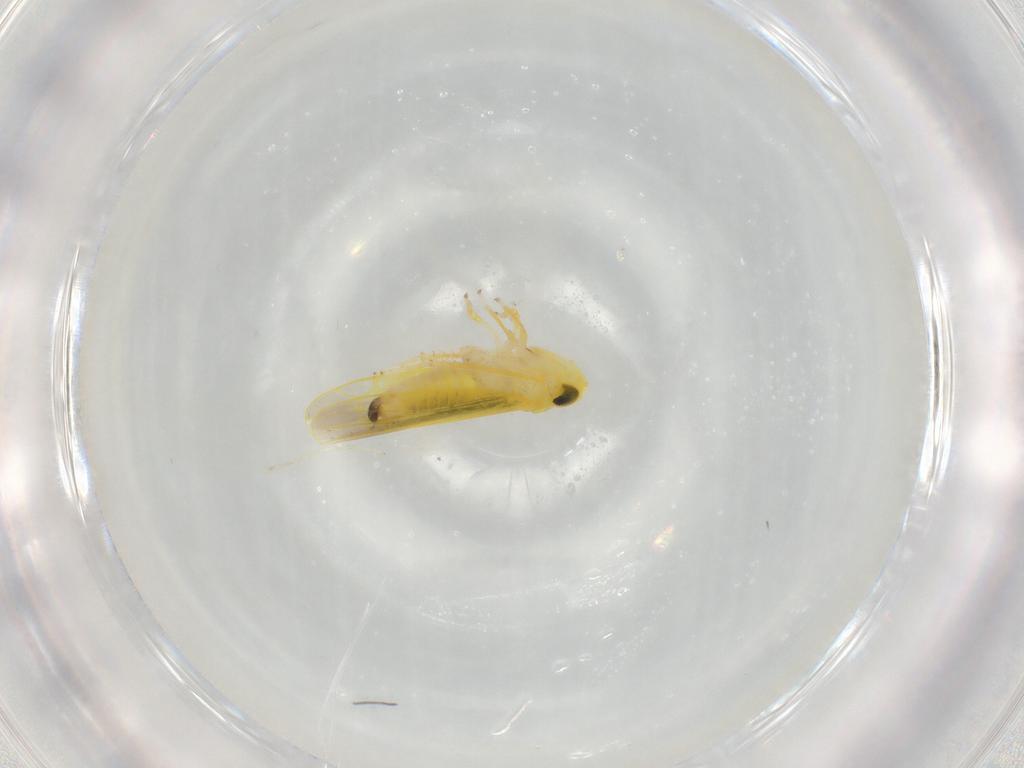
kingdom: Animalia
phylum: Arthropoda
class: Insecta
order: Hemiptera
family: Cicadellidae
